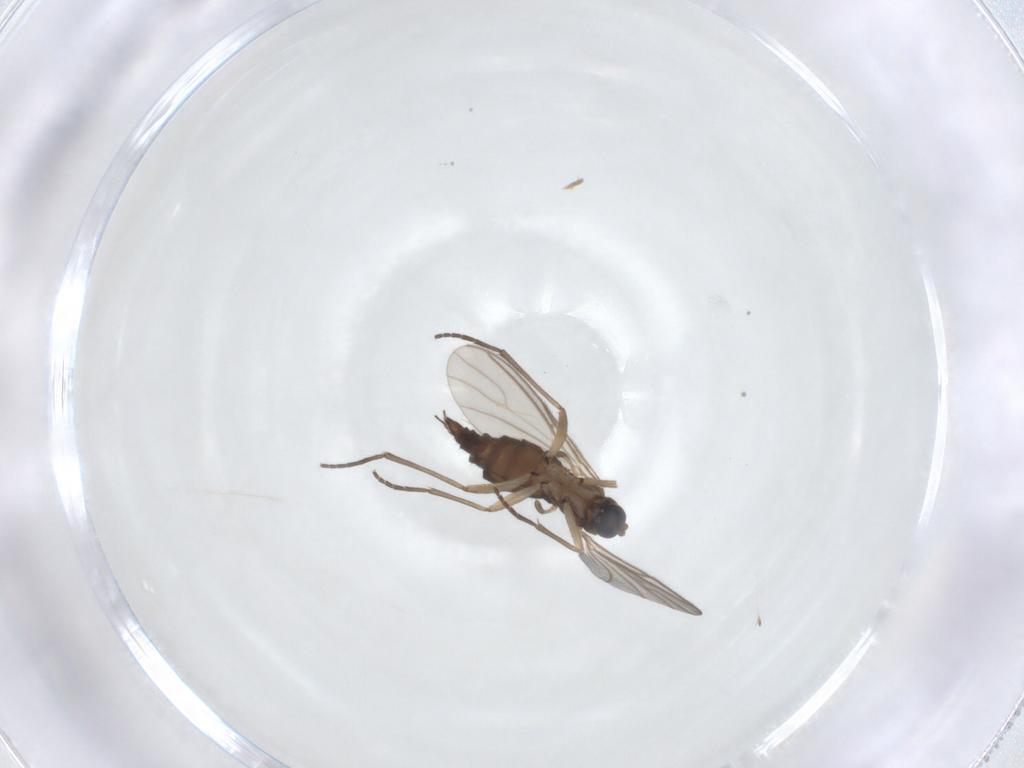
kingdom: Animalia
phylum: Arthropoda
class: Insecta
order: Diptera
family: Sciaridae
